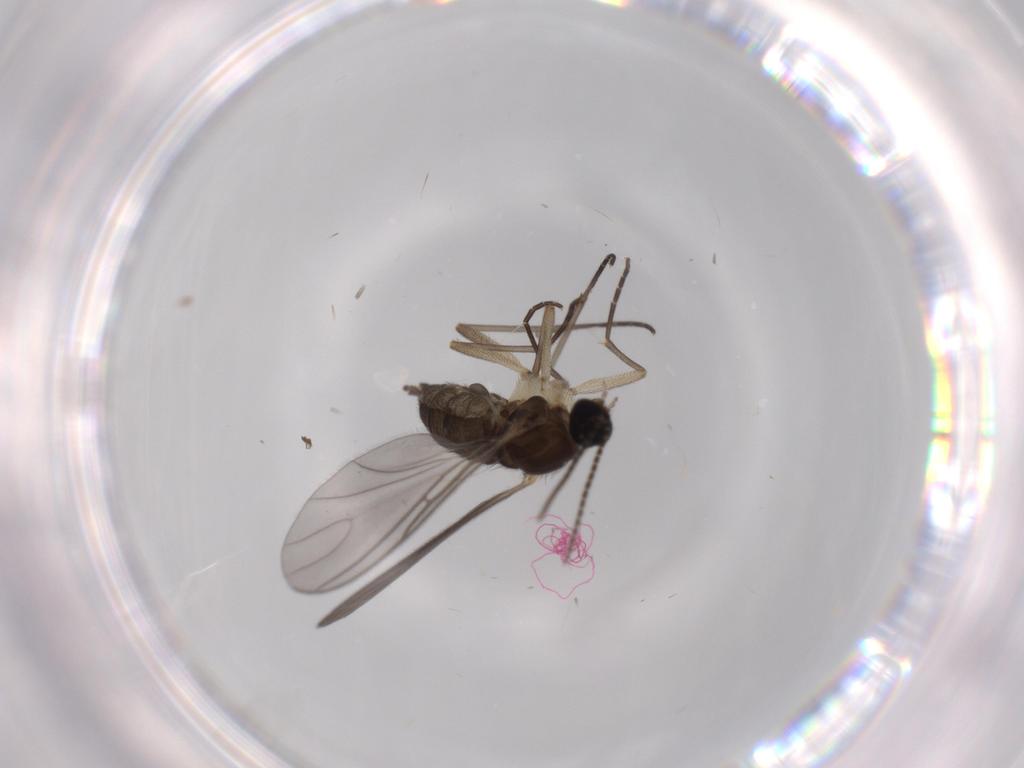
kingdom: Animalia
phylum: Arthropoda
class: Insecta
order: Diptera
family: Dolichopodidae
